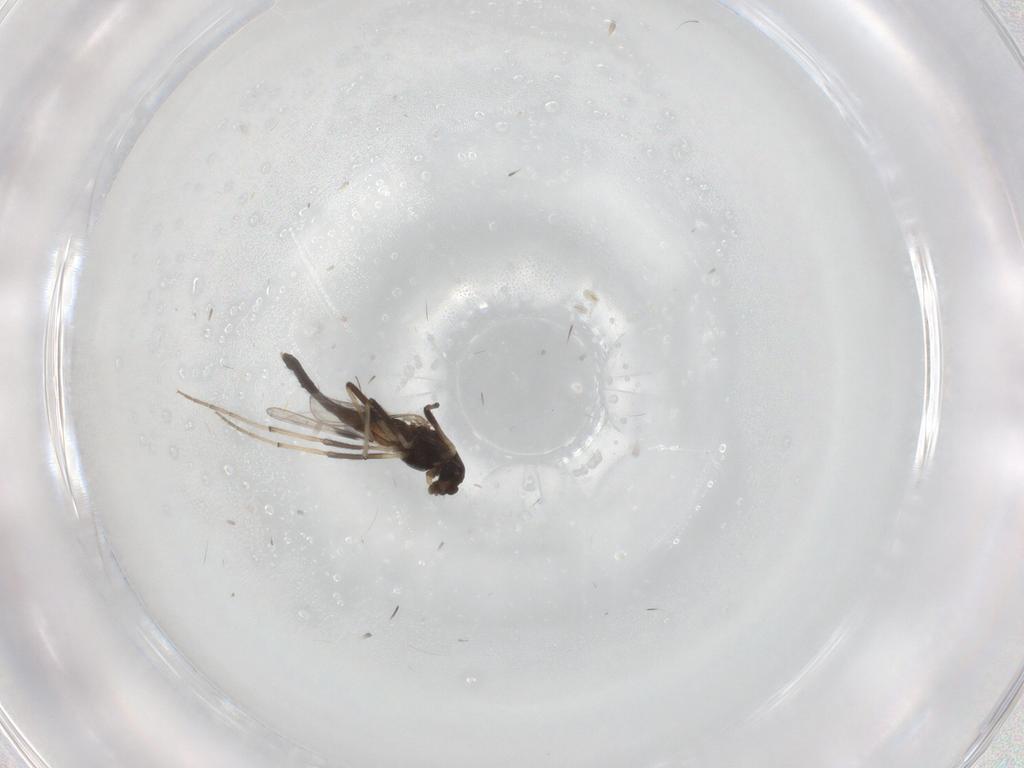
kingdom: Animalia
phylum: Arthropoda
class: Insecta
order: Diptera
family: Chironomidae
